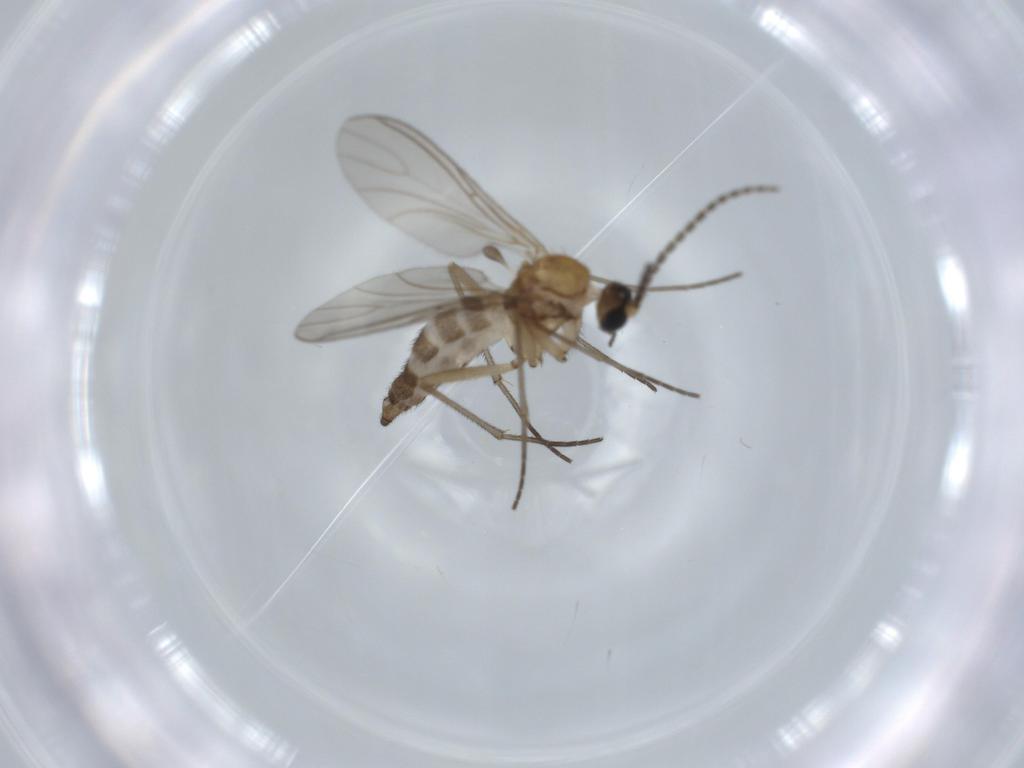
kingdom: Animalia
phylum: Arthropoda
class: Insecta
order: Diptera
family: Sciaridae
